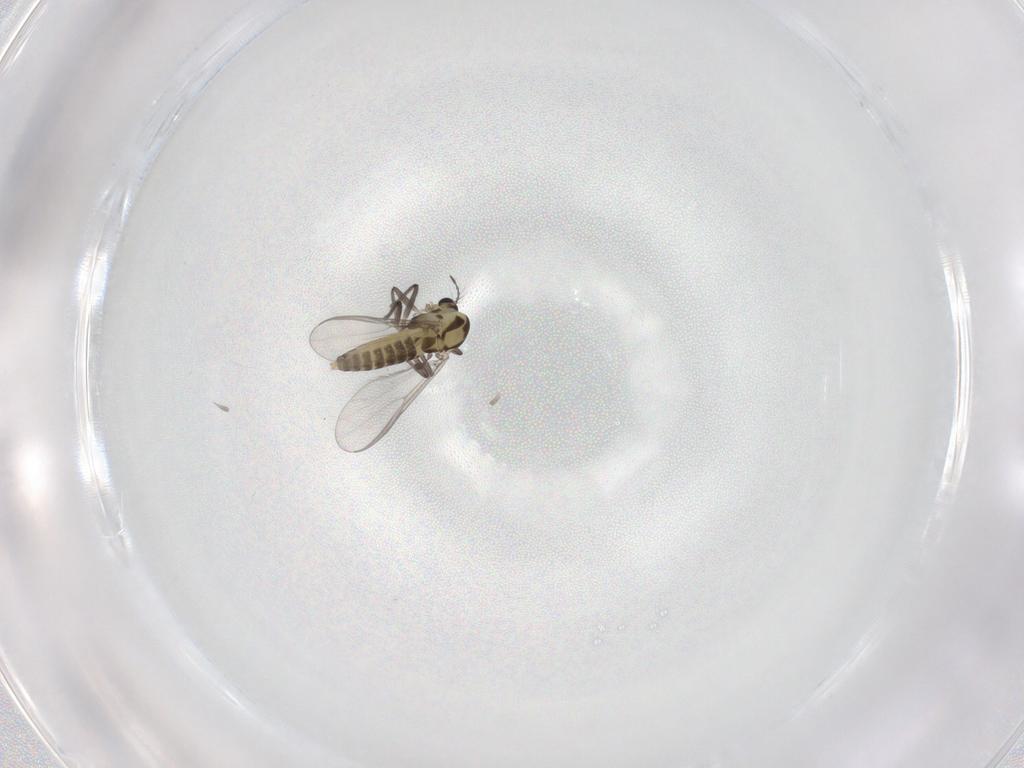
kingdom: Animalia
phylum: Arthropoda
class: Insecta
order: Diptera
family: Chironomidae
